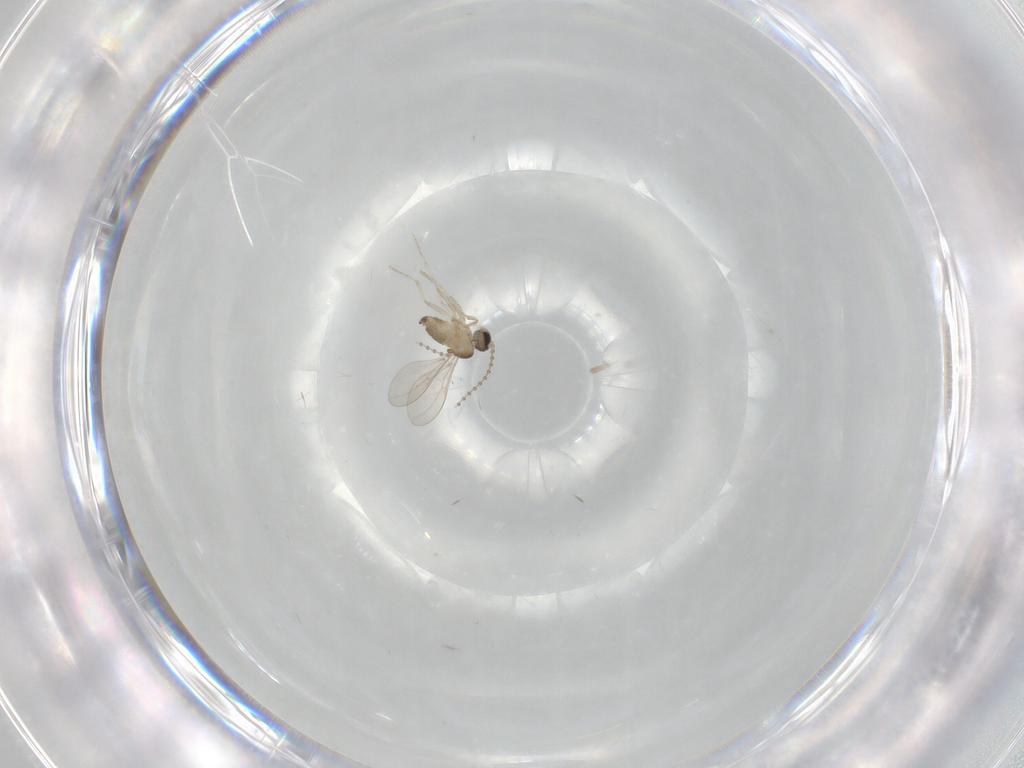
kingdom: Animalia
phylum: Arthropoda
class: Insecta
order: Diptera
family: Cecidomyiidae
